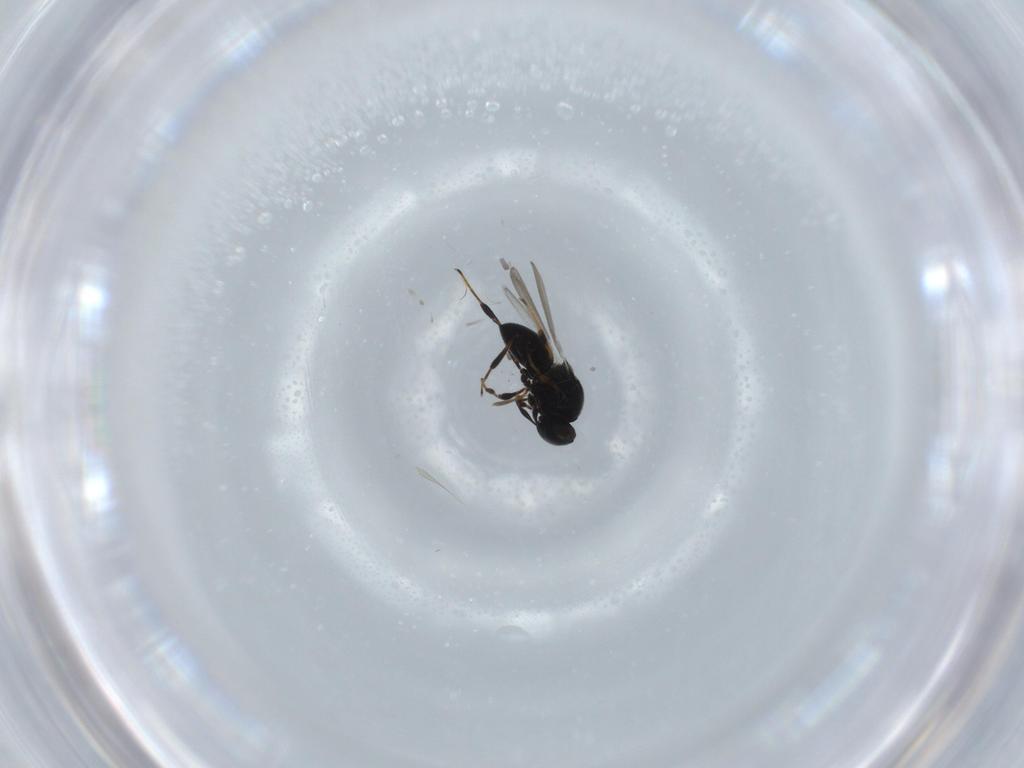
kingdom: Animalia
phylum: Arthropoda
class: Insecta
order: Hymenoptera
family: Platygastridae
